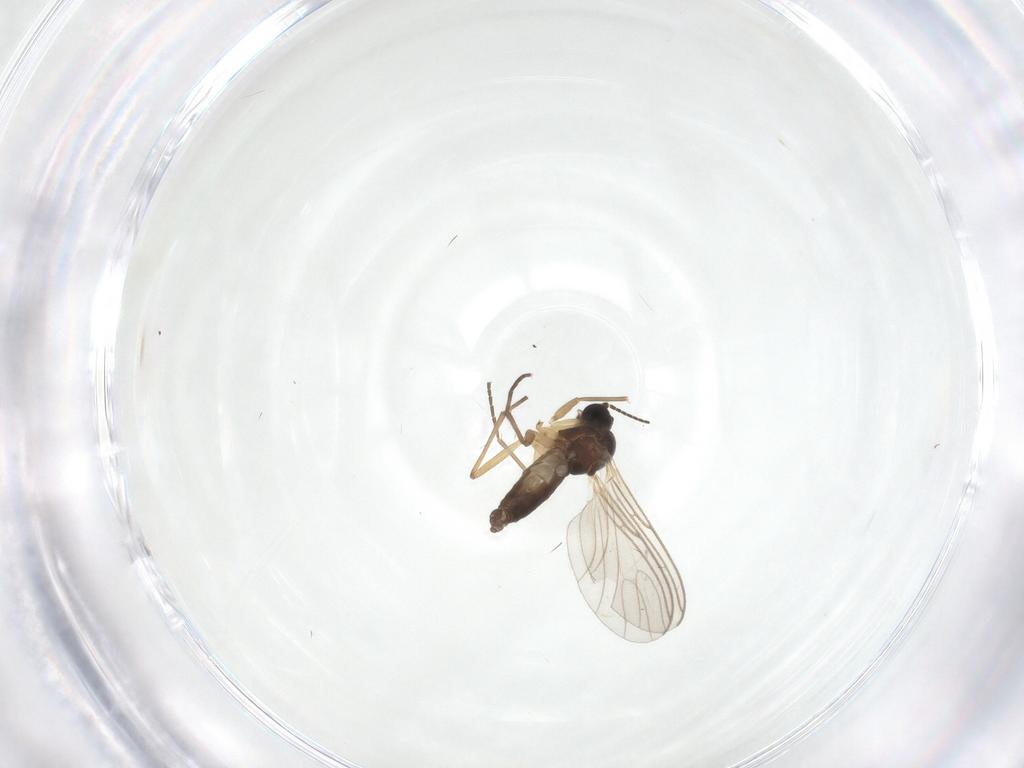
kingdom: Animalia
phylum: Arthropoda
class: Insecta
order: Diptera
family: Sciaridae
